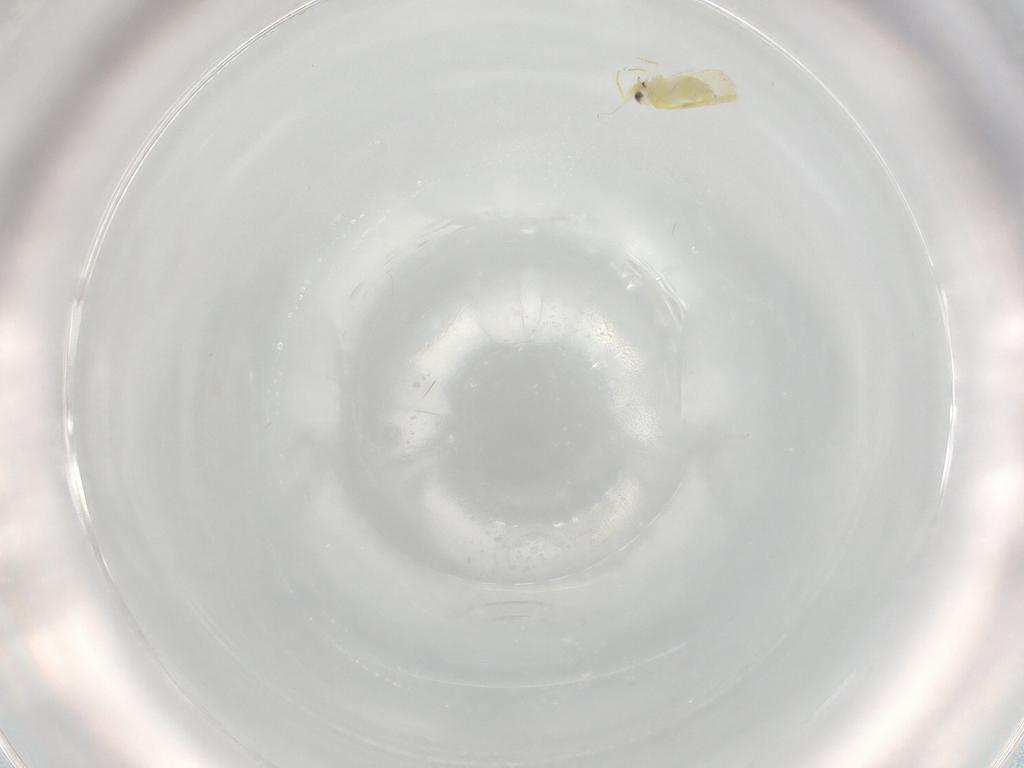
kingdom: Animalia
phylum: Arthropoda
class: Insecta
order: Hemiptera
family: Aleyrodidae
